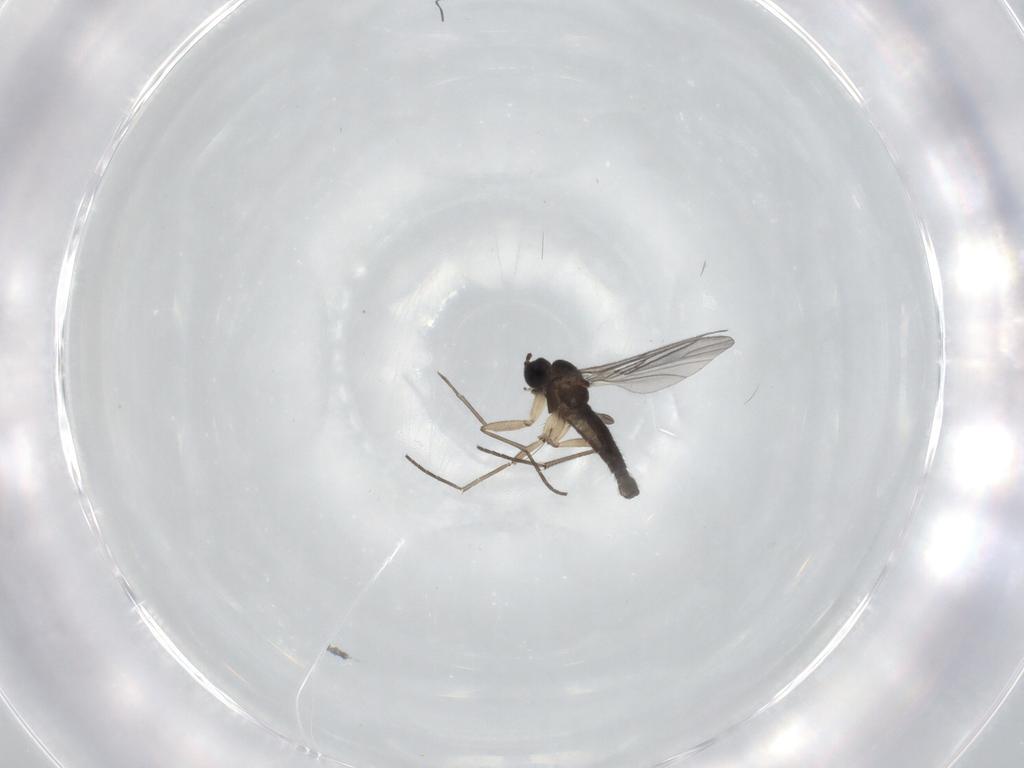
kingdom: Animalia
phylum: Arthropoda
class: Insecta
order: Diptera
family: Sciaridae
